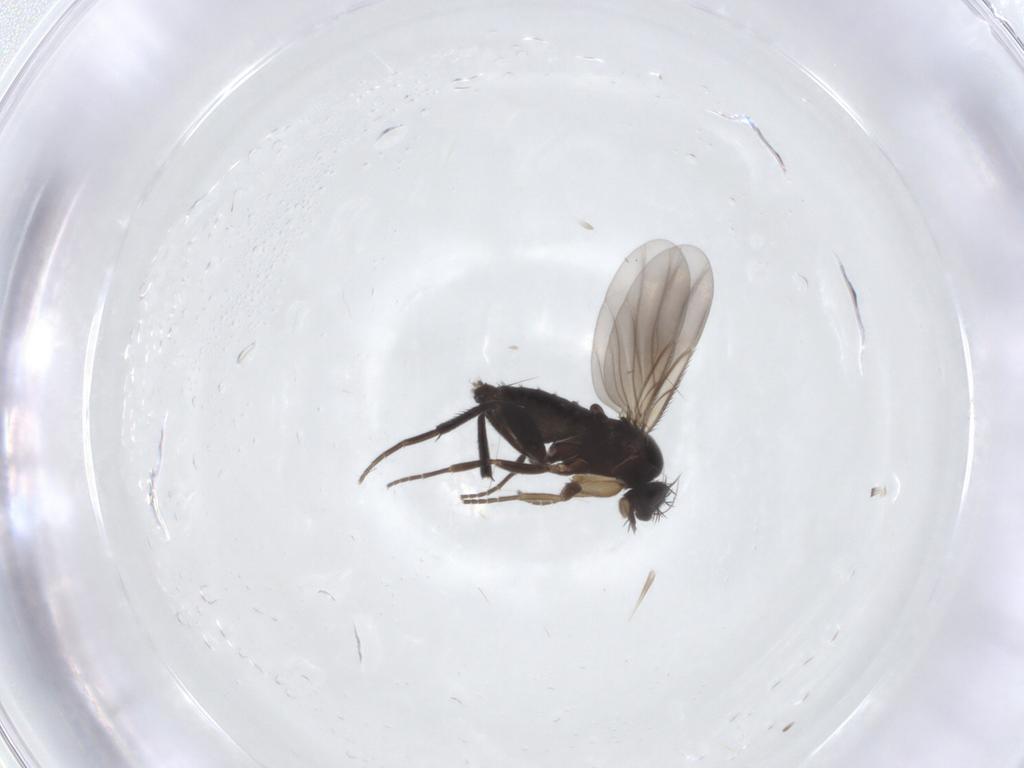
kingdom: Animalia
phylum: Arthropoda
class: Insecta
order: Diptera
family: Phoridae
